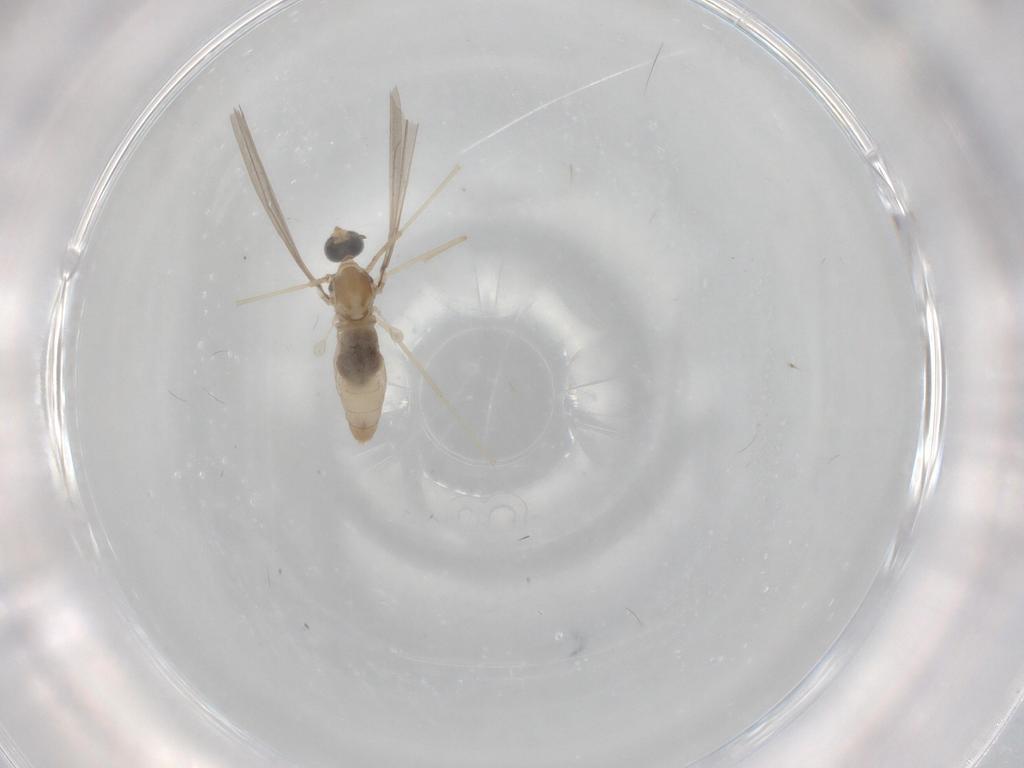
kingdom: Animalia
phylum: Arthropoda
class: Insecta
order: Diptera
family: Cecidomyiidae
